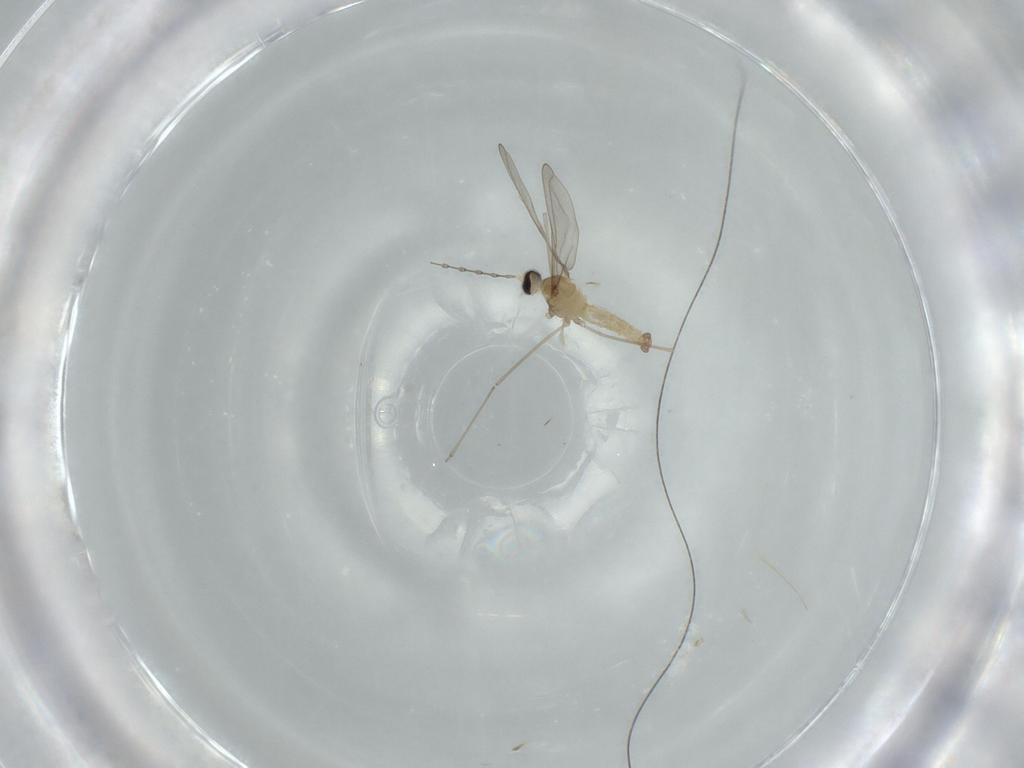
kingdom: Animalia
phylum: Arthropoda
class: Insecta
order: Diptera
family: Cecidomyiidae
